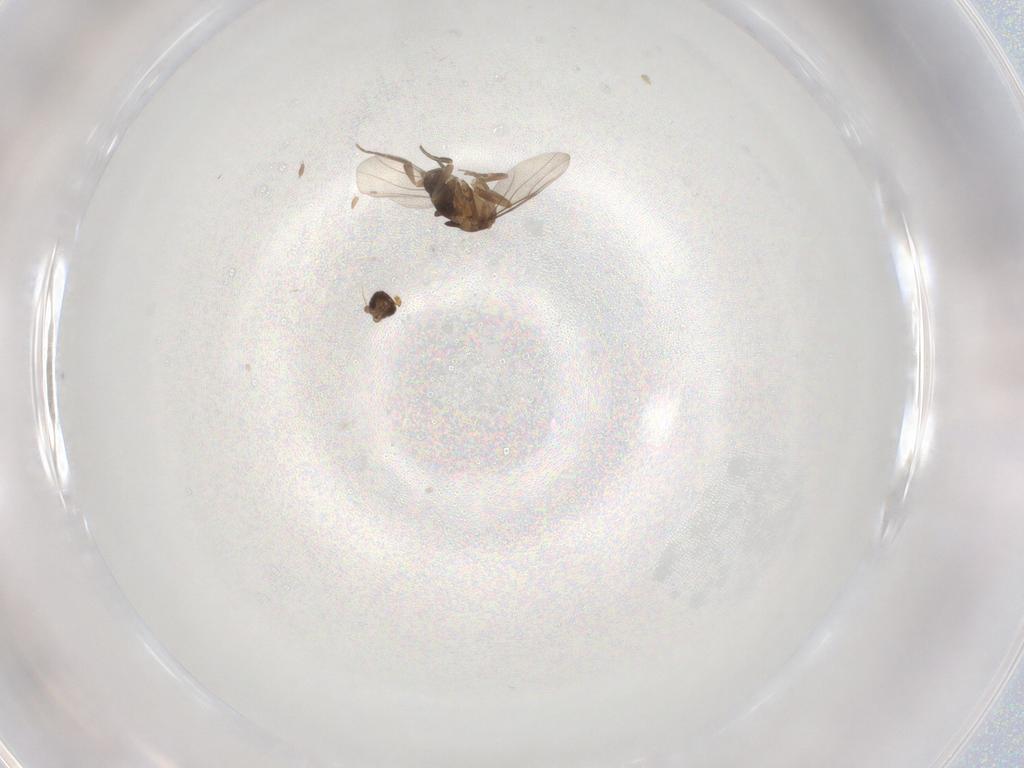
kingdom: Animalia
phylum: Arthropoda
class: Insecta
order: Diptera
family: Phoridae
